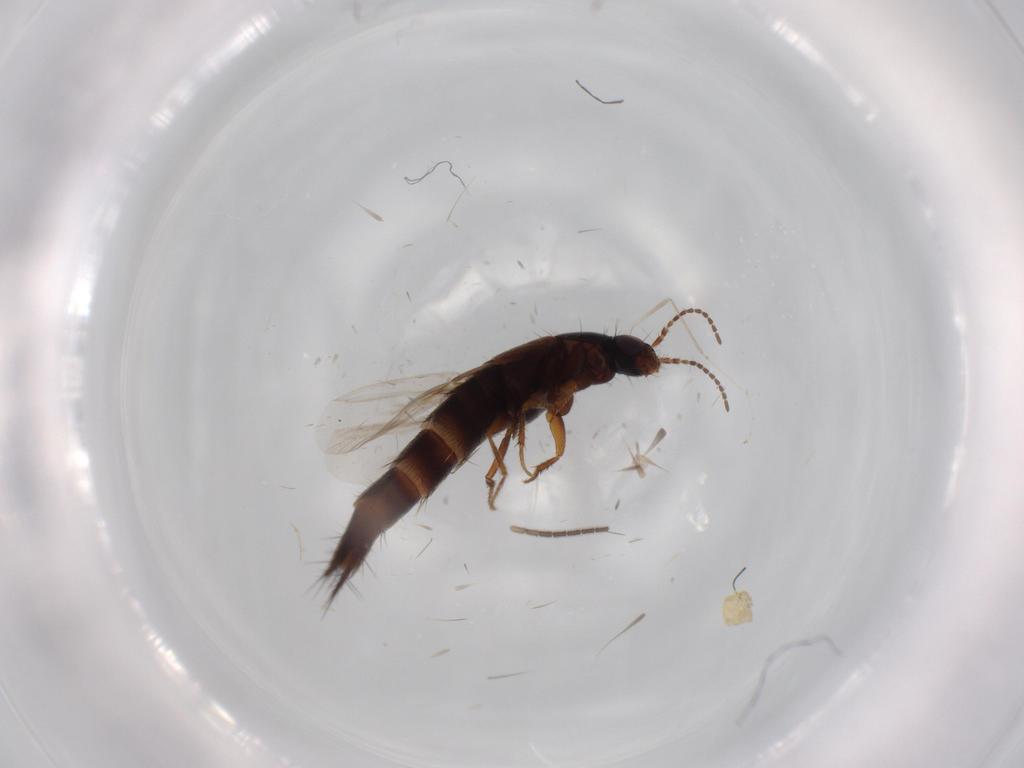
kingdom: Animalia
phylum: Arthropoda
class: Insecta
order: Coleoptera
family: Staphylinidae
